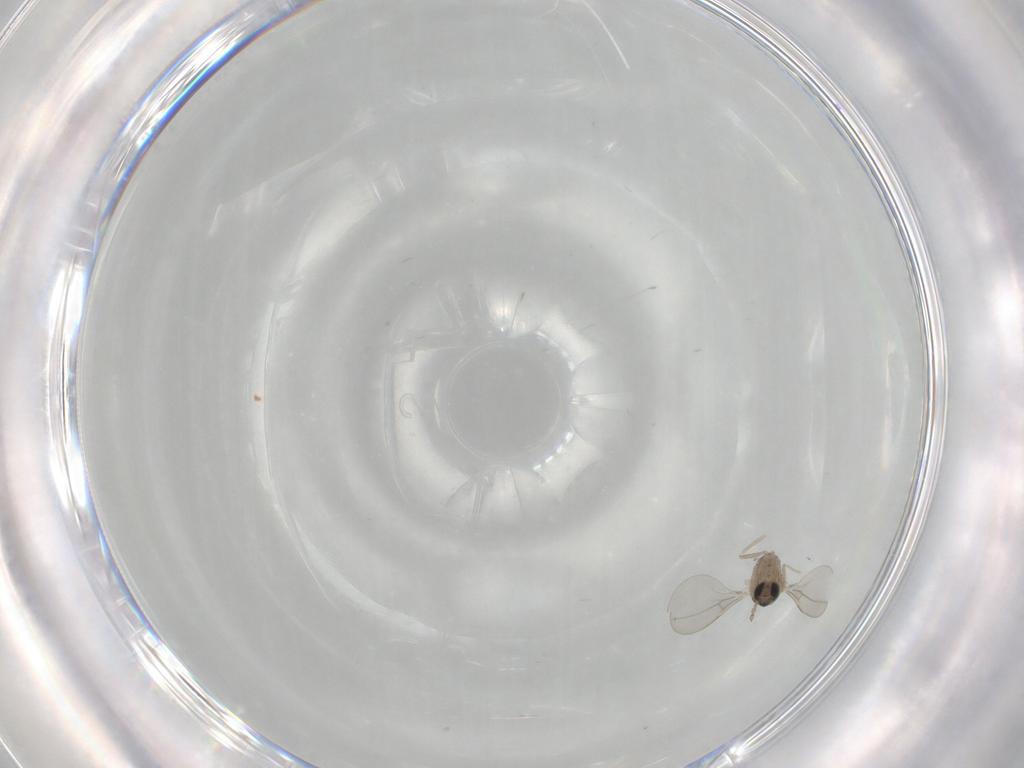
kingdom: Animalia
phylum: Arthropoda
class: Insecta
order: Diptera
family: Cecidomyiidae
